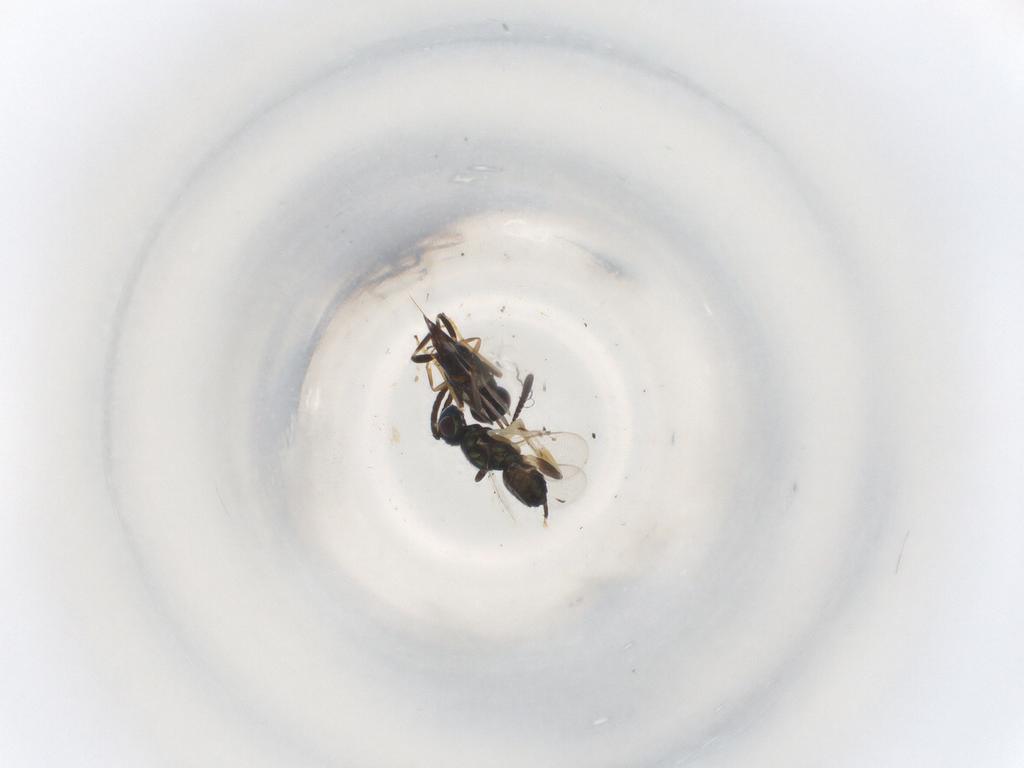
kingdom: Animalia
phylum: Arthropoda
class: Insecta
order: Hymenoptera
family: Eupelmidae
